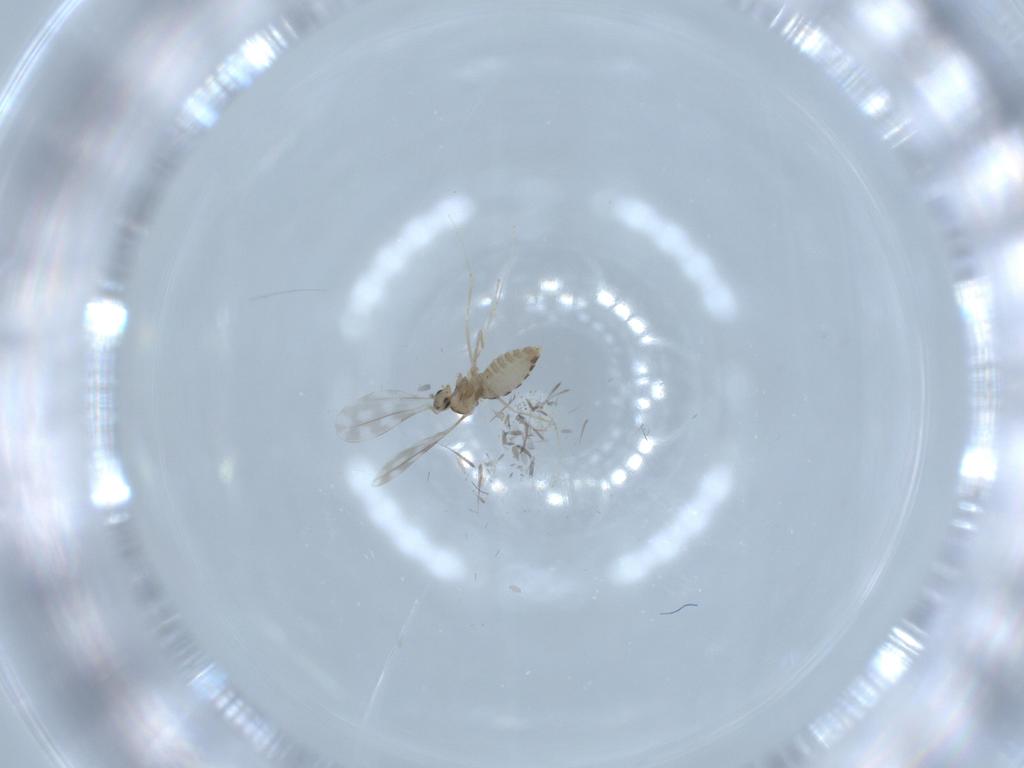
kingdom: Animalia
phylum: Arthropoda
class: Insecta
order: Diptera
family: Cecidomyiidae
